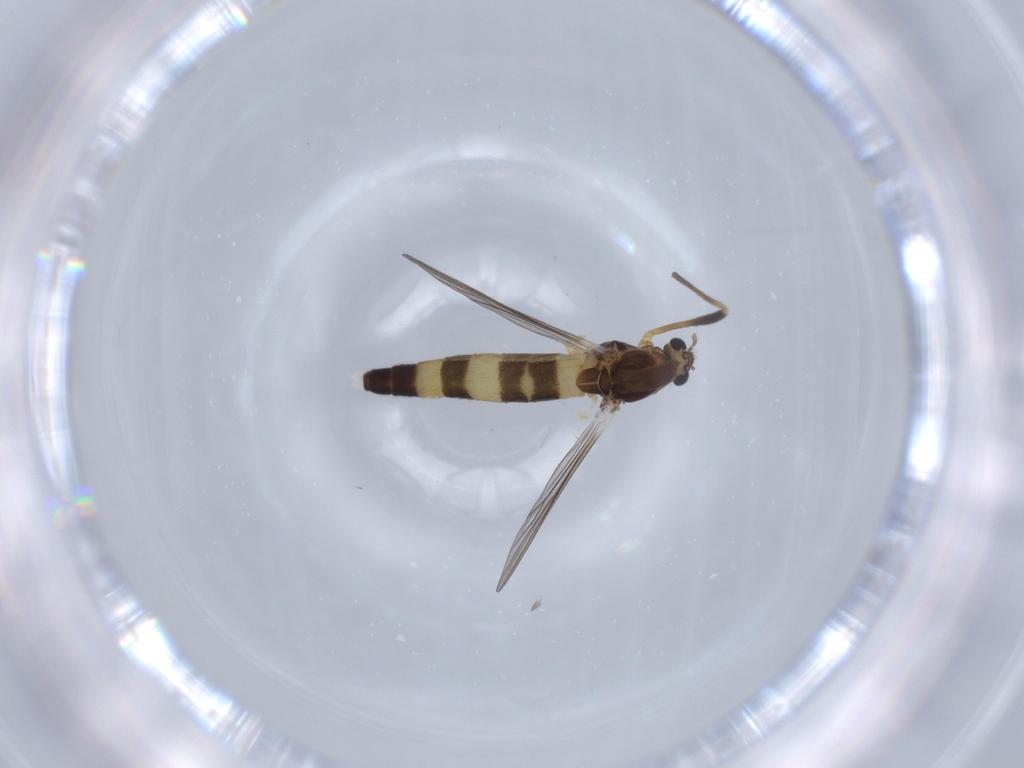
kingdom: Animalia
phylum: Arthropoda
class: Insecta
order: Diptera
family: Chironomidae
